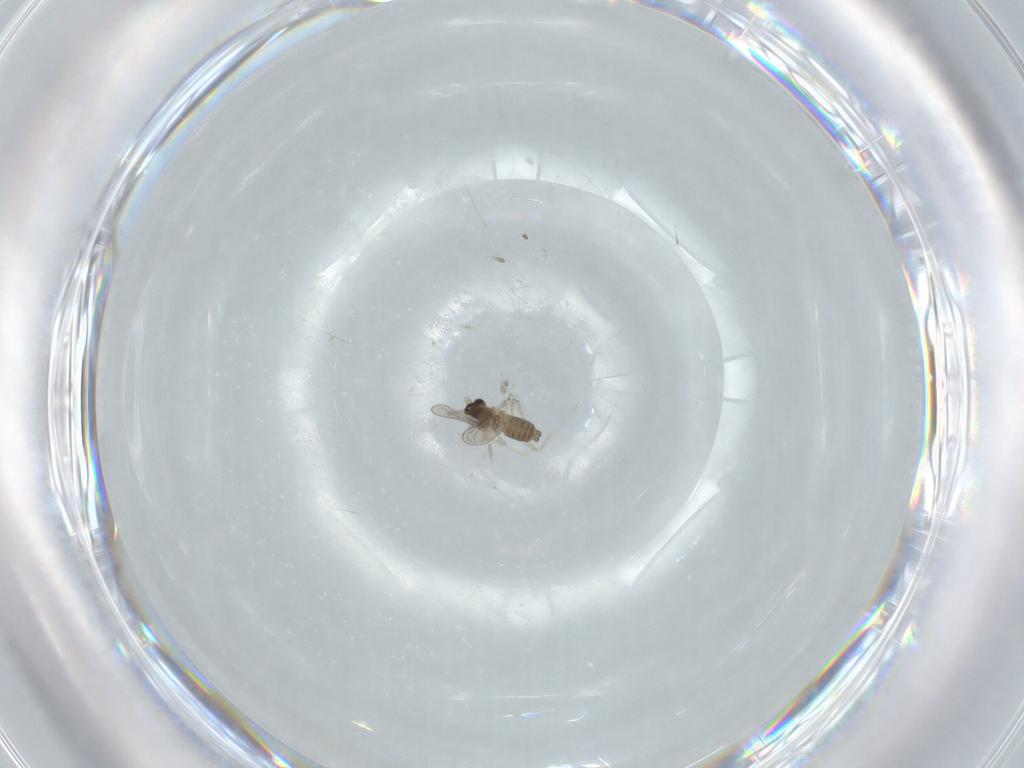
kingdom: Animalia
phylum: Arthropoda
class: Insecta
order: Diptera
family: Cecidomyiidae
